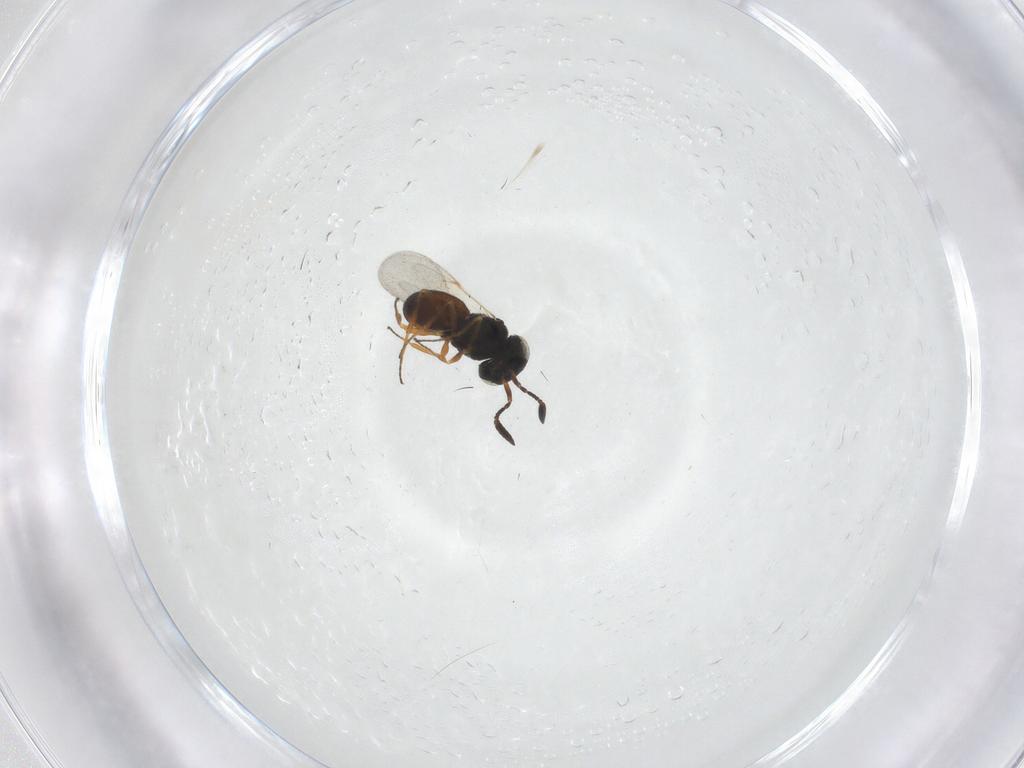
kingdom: Animalia
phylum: Arthropoda
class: Insecta
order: Hymenoptera
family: Scelionidae
